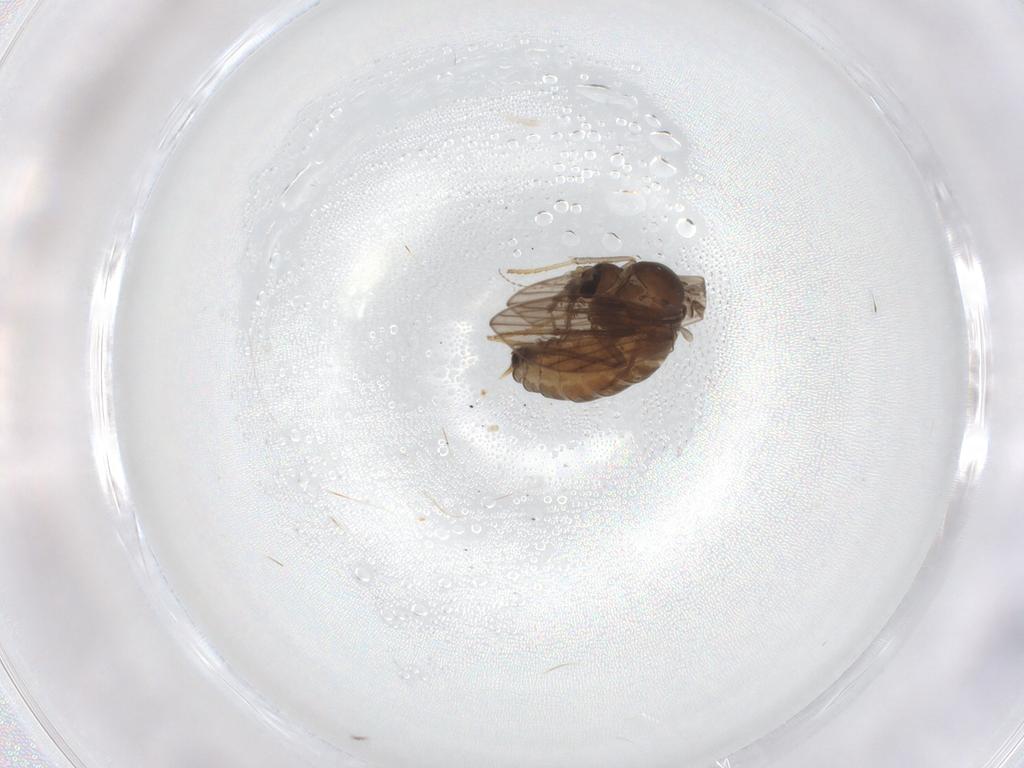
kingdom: Animalia
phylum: Arthropoda
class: Insecta
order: Diptera
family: Psychodidae
